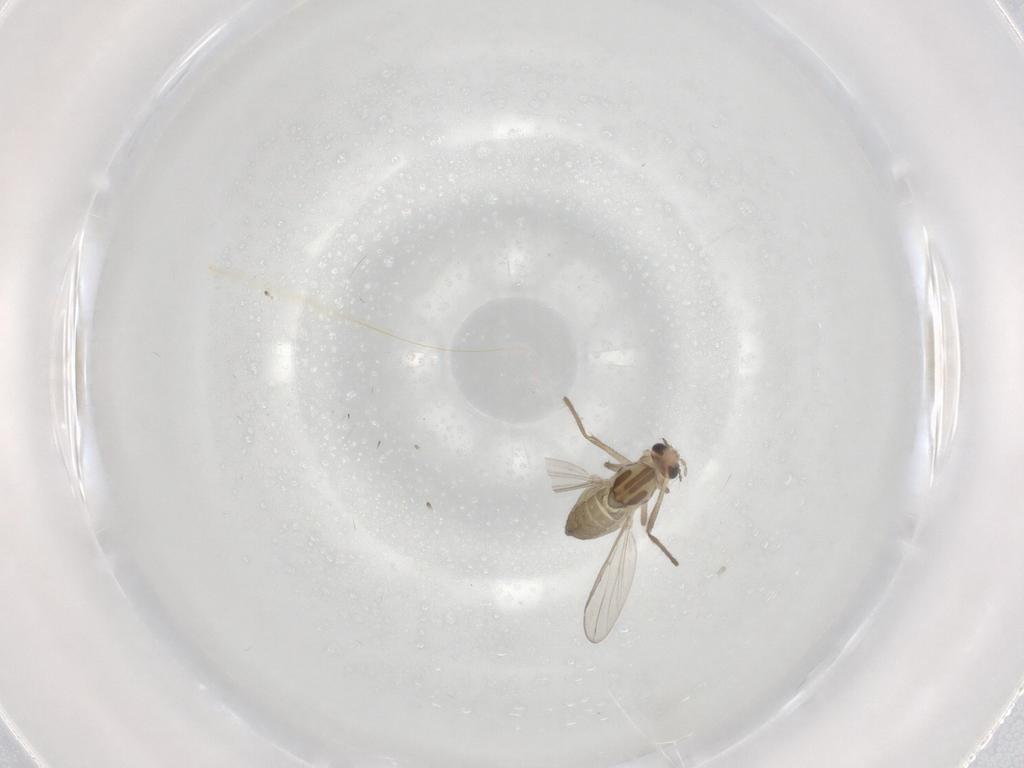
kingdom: Animalia
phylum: Arthropoda
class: Insecta
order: Diptera
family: Chironomidae
